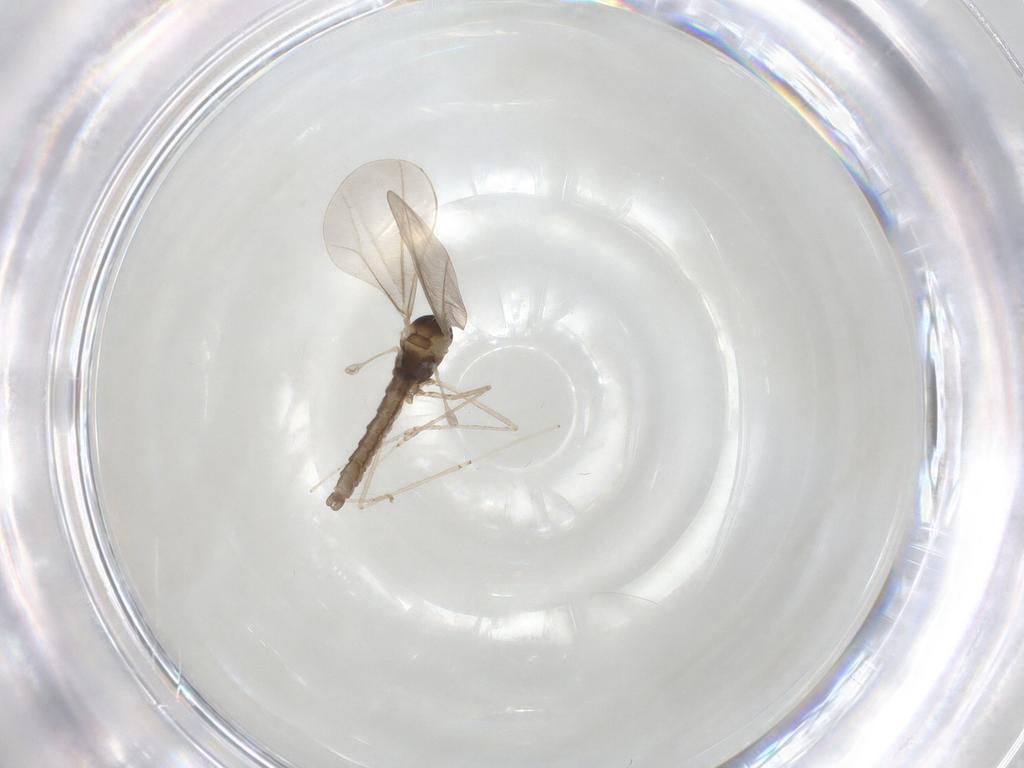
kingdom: Animalia
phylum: Arthropoda
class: Insecta
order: Diptera
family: Cecidomyiidae
